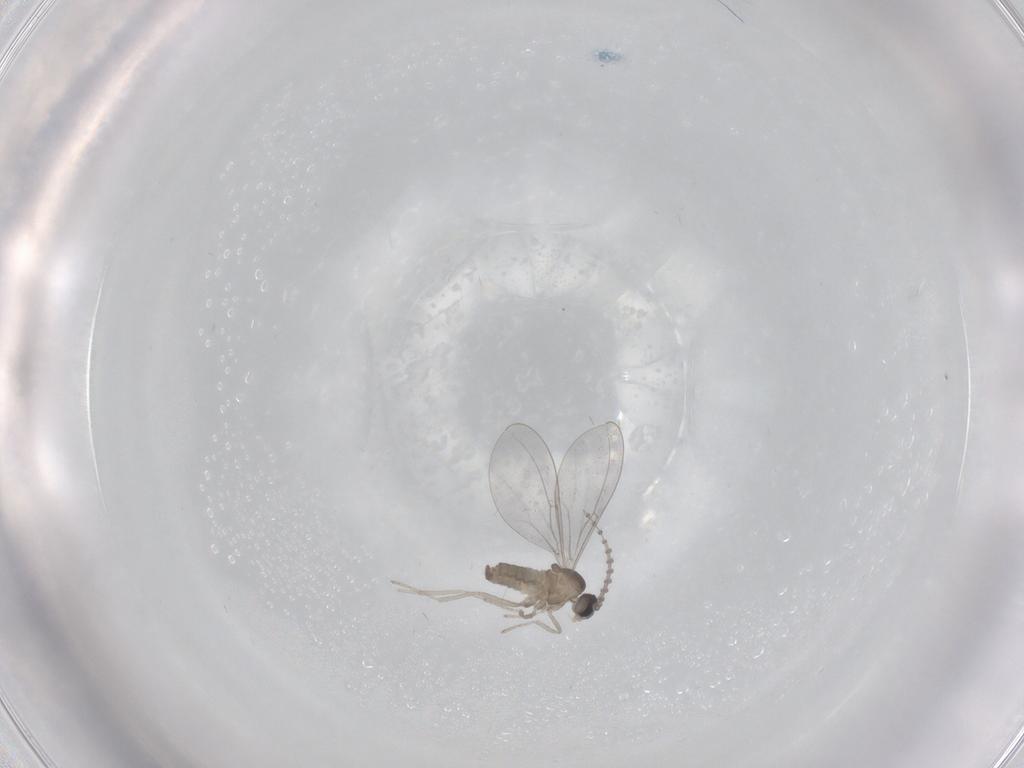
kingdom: Animalia
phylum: Arthropoda
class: Insecta
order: Diptera
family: Cecidomyiidae
